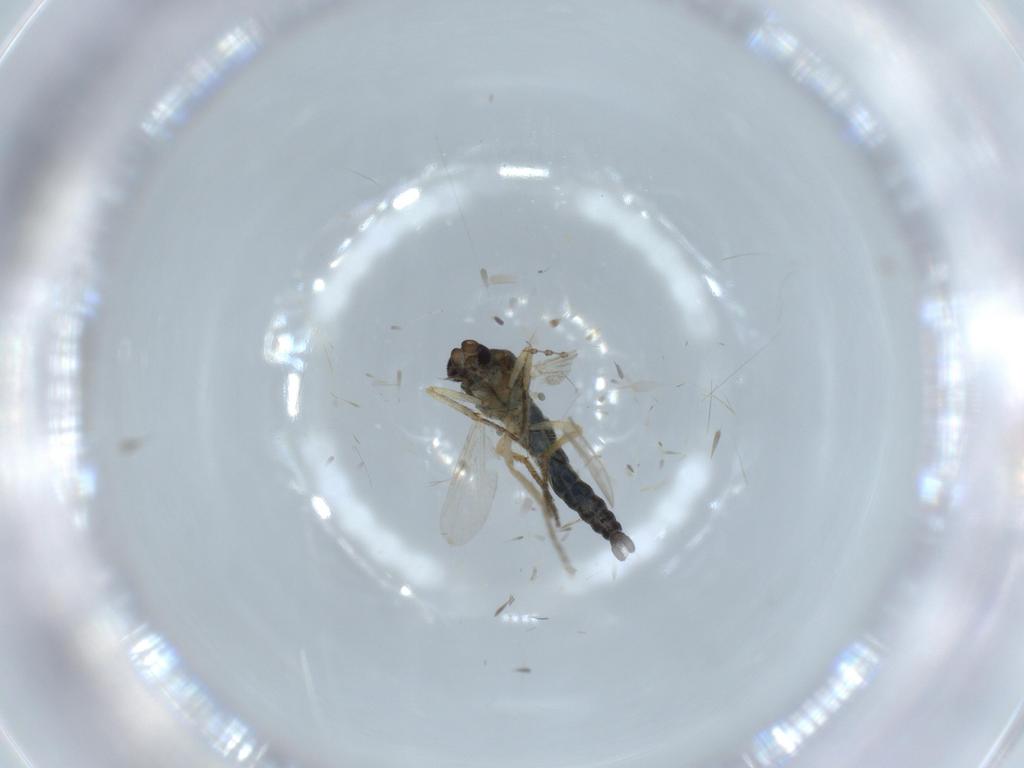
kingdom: Animalia
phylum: Arthropoda
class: Insecta
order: Diptera
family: Ceratopogonidae
